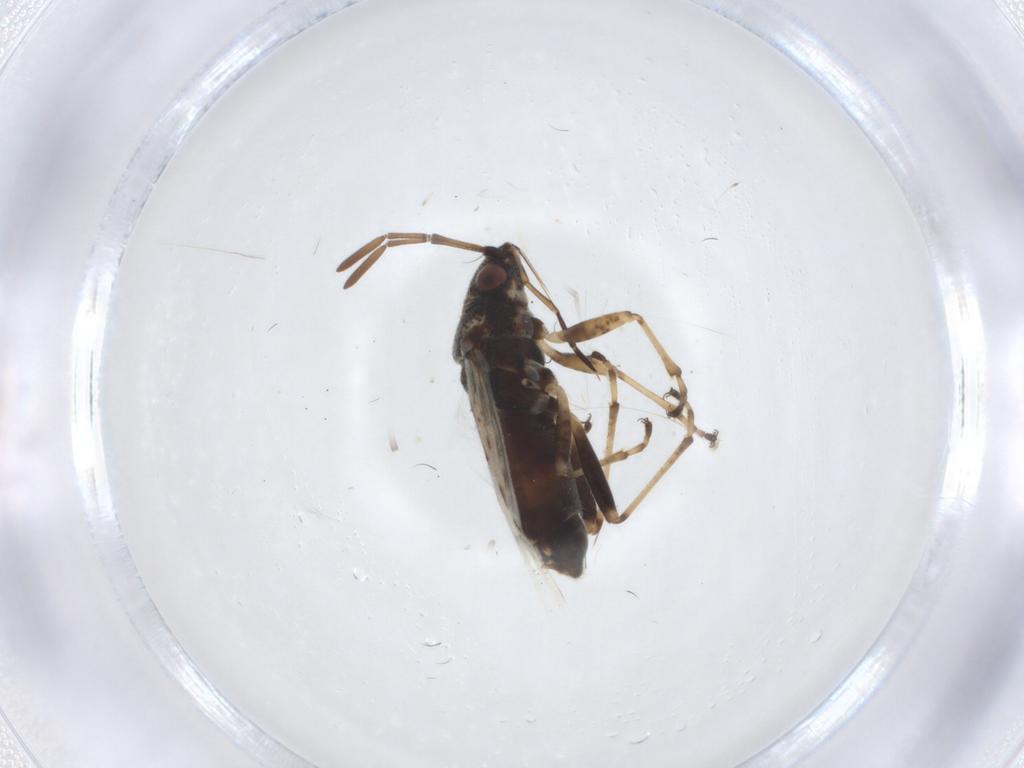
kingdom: Animalia
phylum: Arthropoda
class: Insecta
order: Hemiptera
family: Lygaeidae
